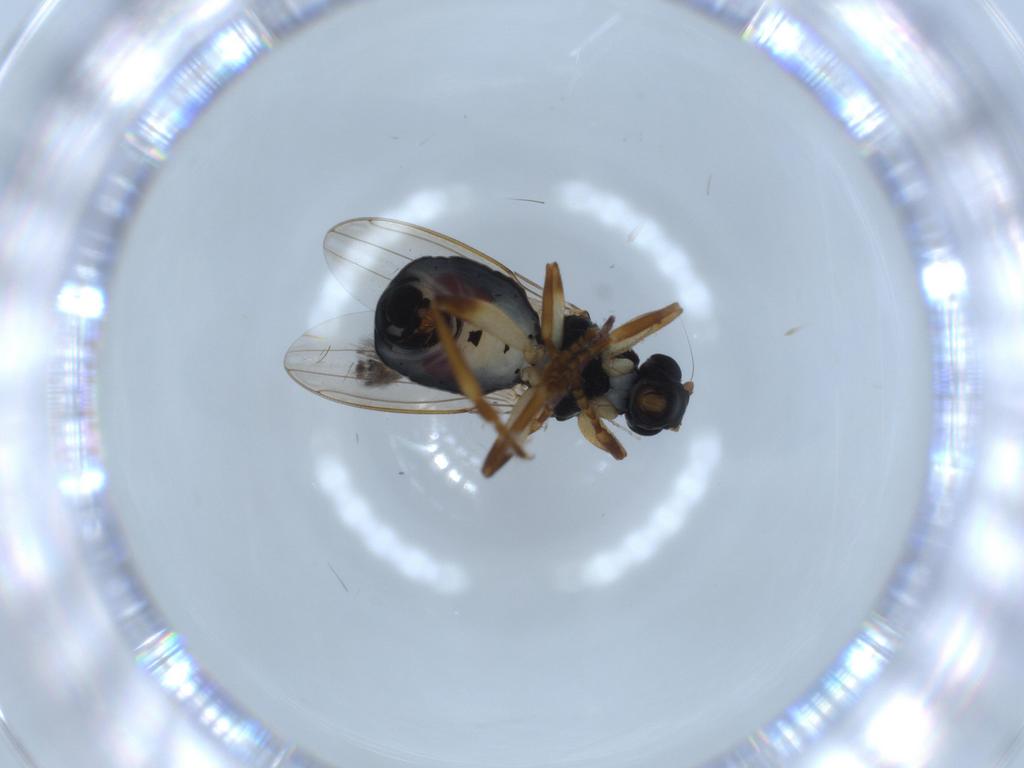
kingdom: Animalia
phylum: Arthropoda
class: Insecta
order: Diptera
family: Sphaeroceridae
